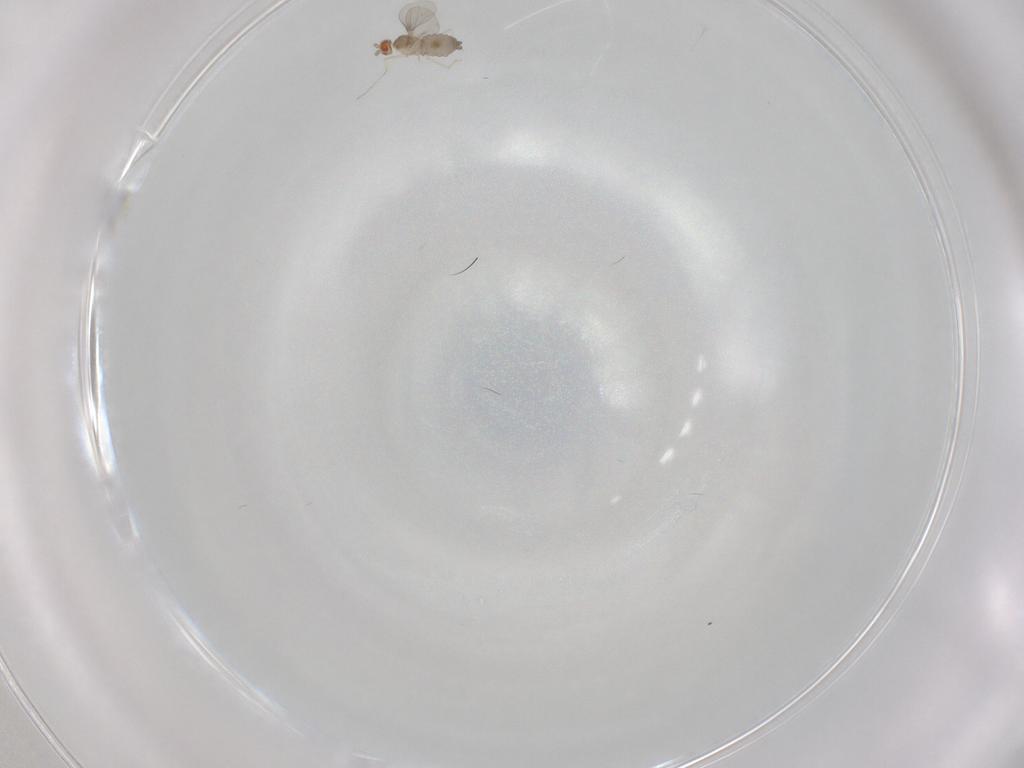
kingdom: Animalia
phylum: Arthropoda
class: Insecta
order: Diptera
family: Cecidomyiidae
